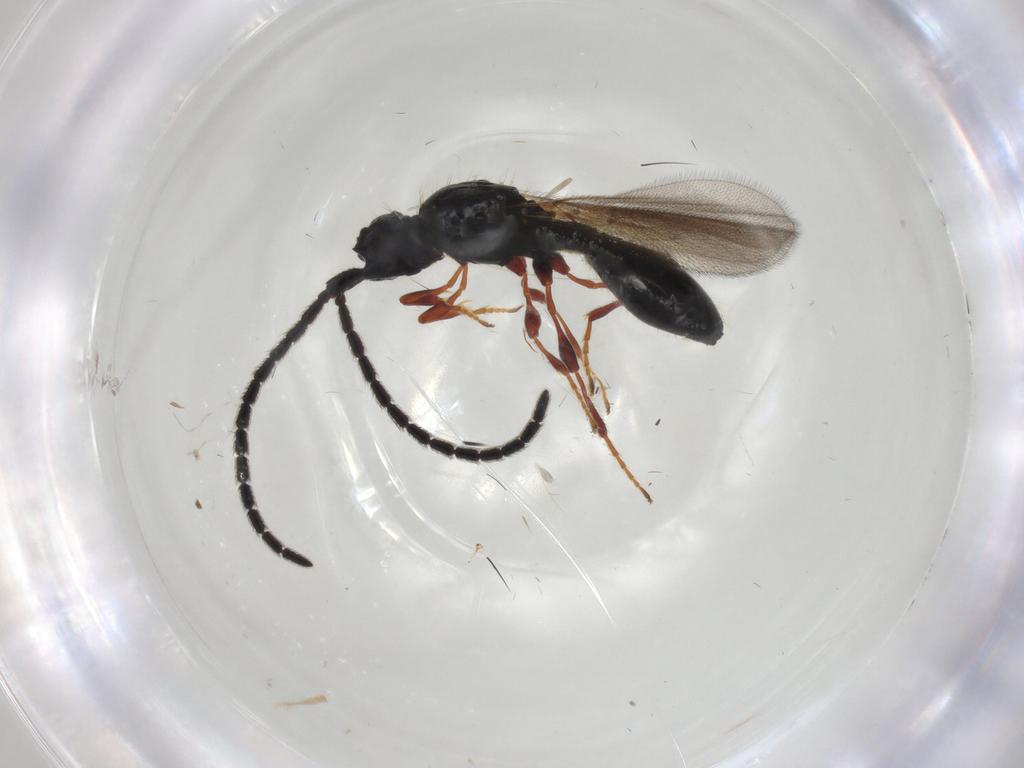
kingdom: Animalia
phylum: Arthropoda
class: Insecta
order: Hymenoptera
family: Diapriidae
